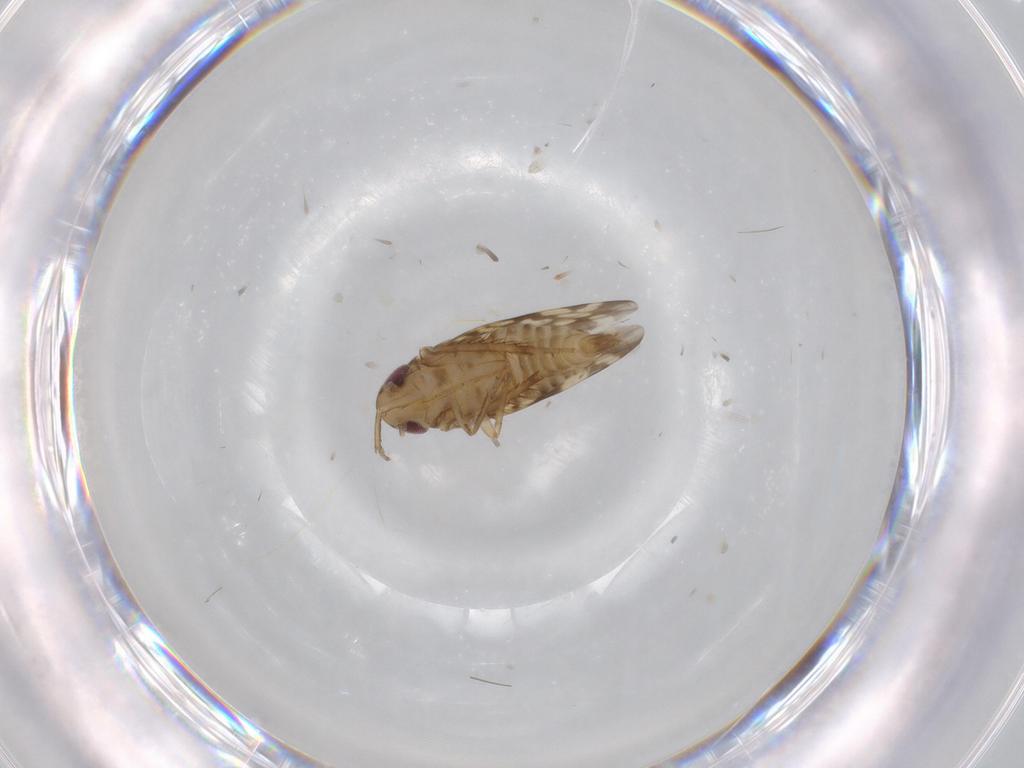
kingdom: Animalia
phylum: Arthropoda
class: Insecta
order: Hemiptera
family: Cicadellidae
